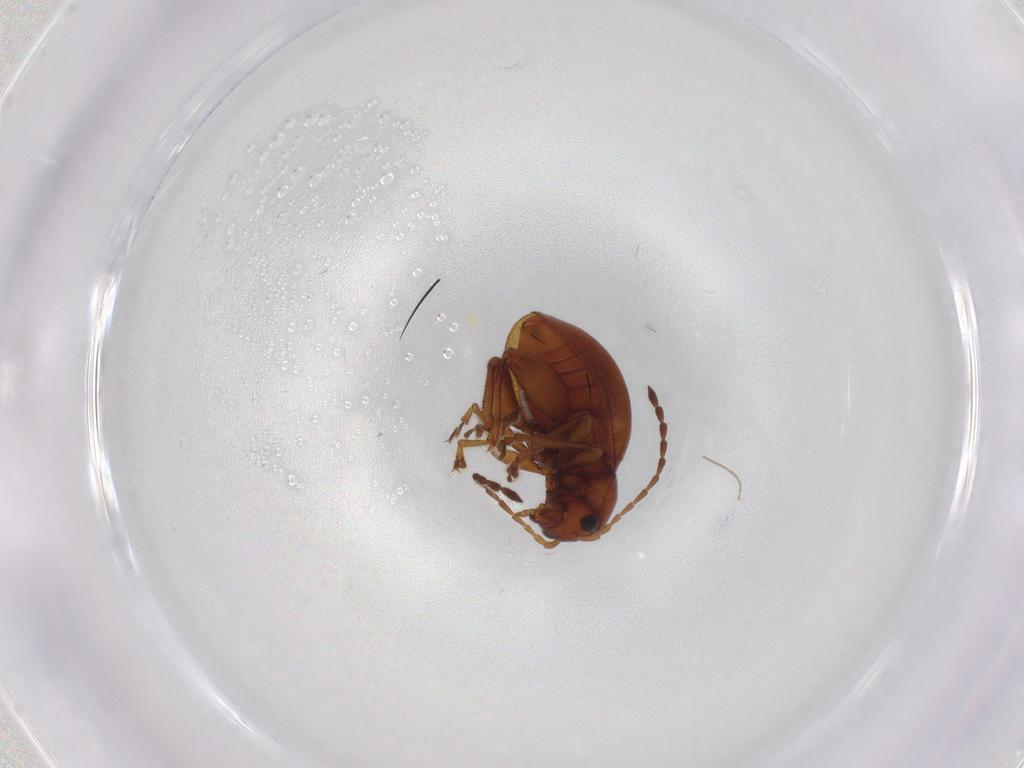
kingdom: Animalia
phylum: Arthropoda
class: Insecta
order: Coleoptera
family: Chrysomelidae
